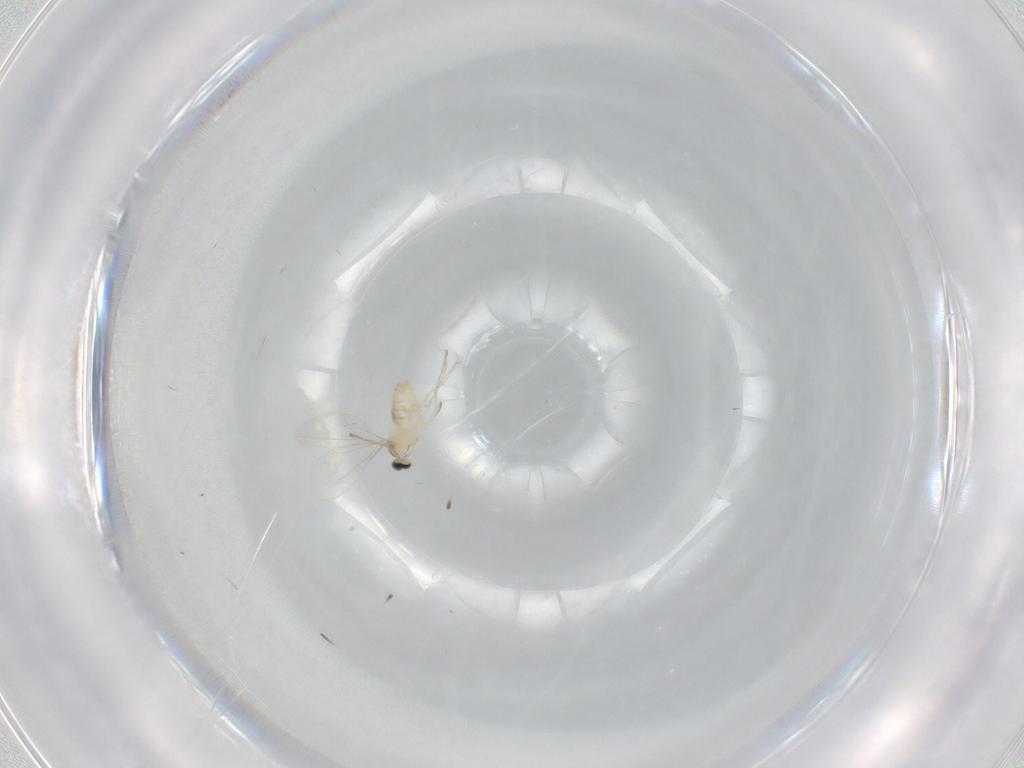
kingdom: Animalia
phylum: Arthropoda
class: Insecta
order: Diptera
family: Cecidomyiidae
